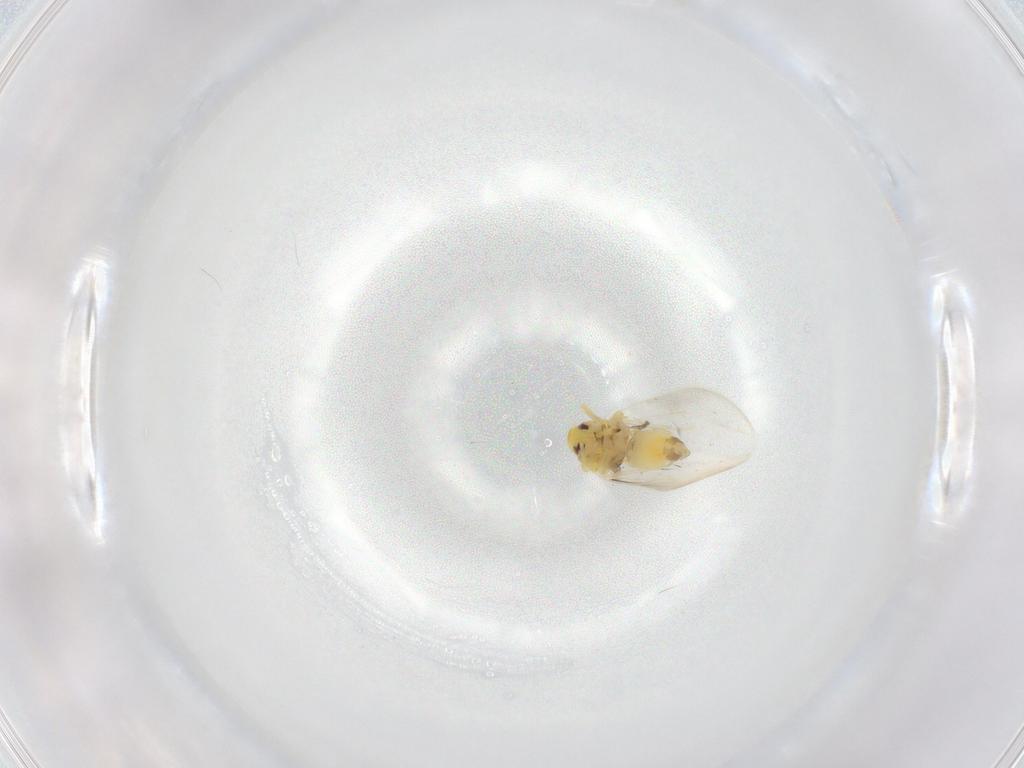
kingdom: Animalia
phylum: Arthropoda
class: Insecta
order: Hemiptera
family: Aleyrodidae
